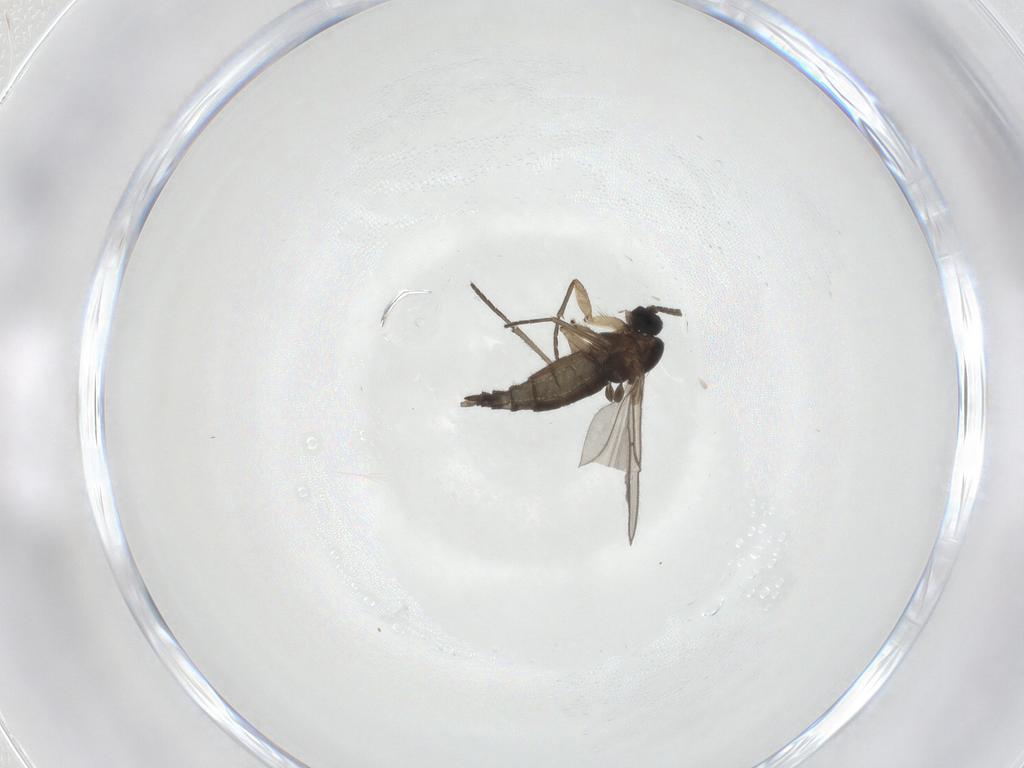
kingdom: Animalia
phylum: Arthropoda
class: Insecta
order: Diptera
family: Sciaridae
